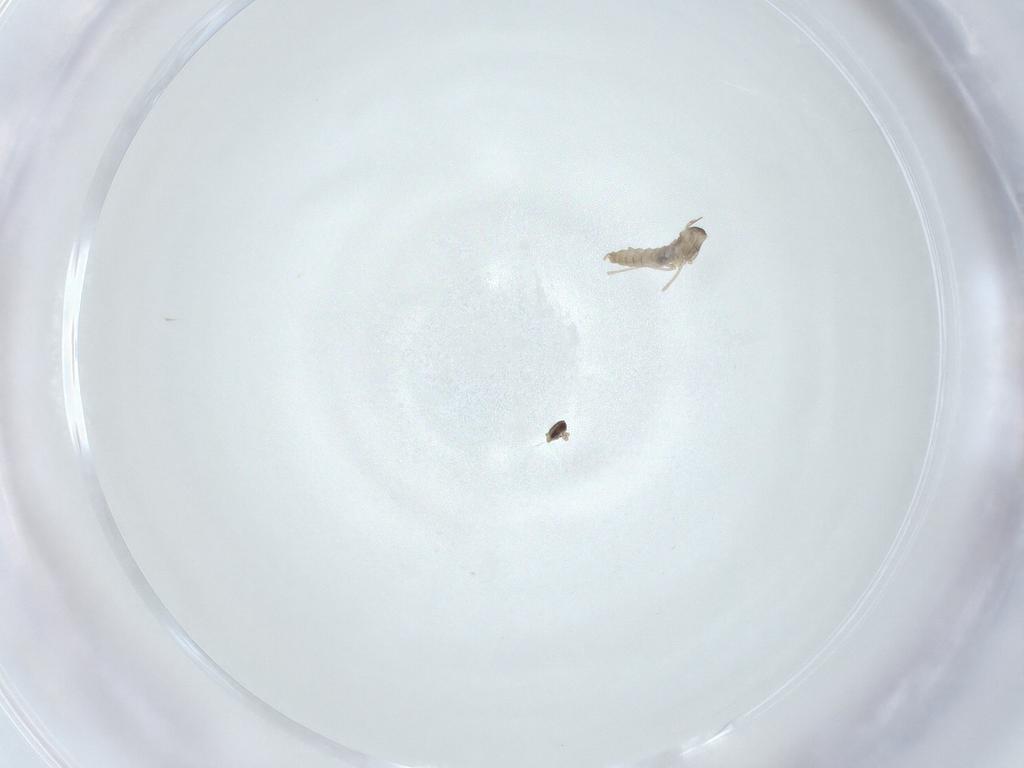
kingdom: Animalia
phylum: Arthropoda
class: Insecta
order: Diptera
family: Cecidomyiidae
